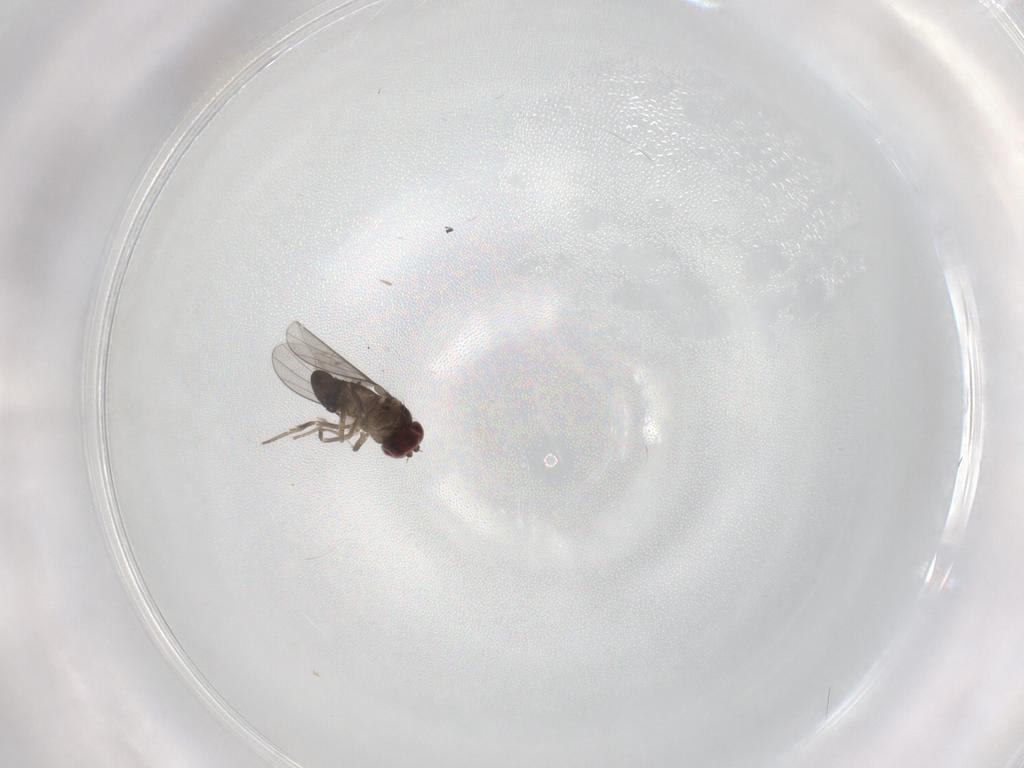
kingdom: Animalia
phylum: Arthropoda
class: Insecta
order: Diptera
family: Dolichopodidae
